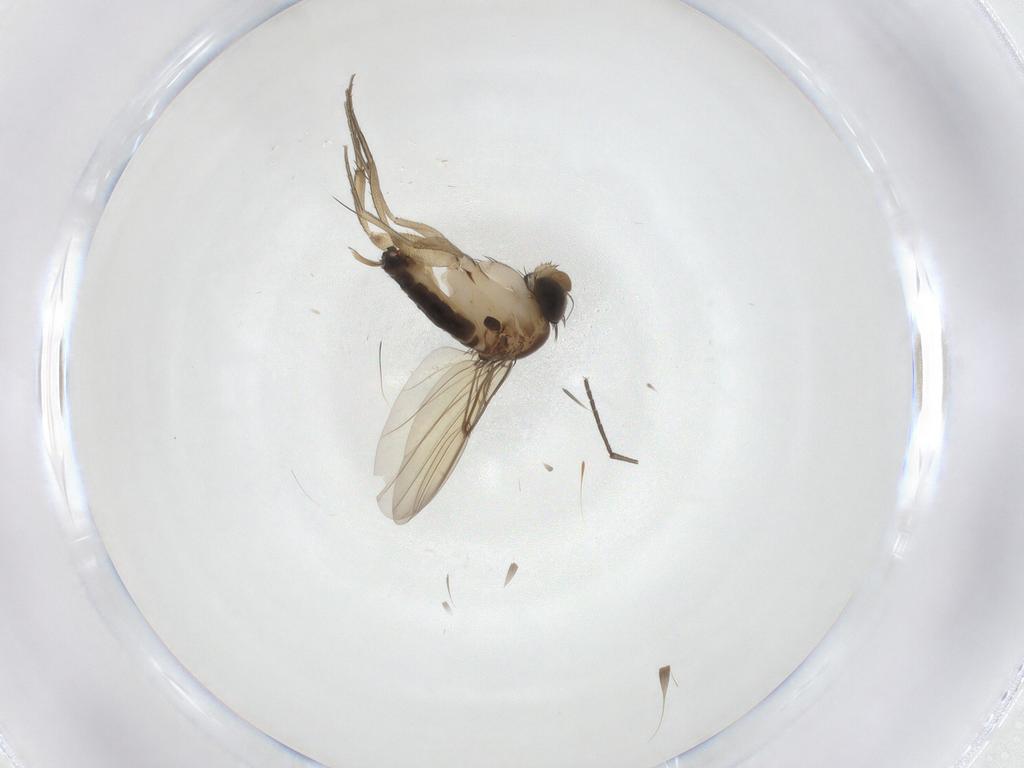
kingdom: Animalia
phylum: Arthropoda
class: Insecta
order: Diptera
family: Phoridae
